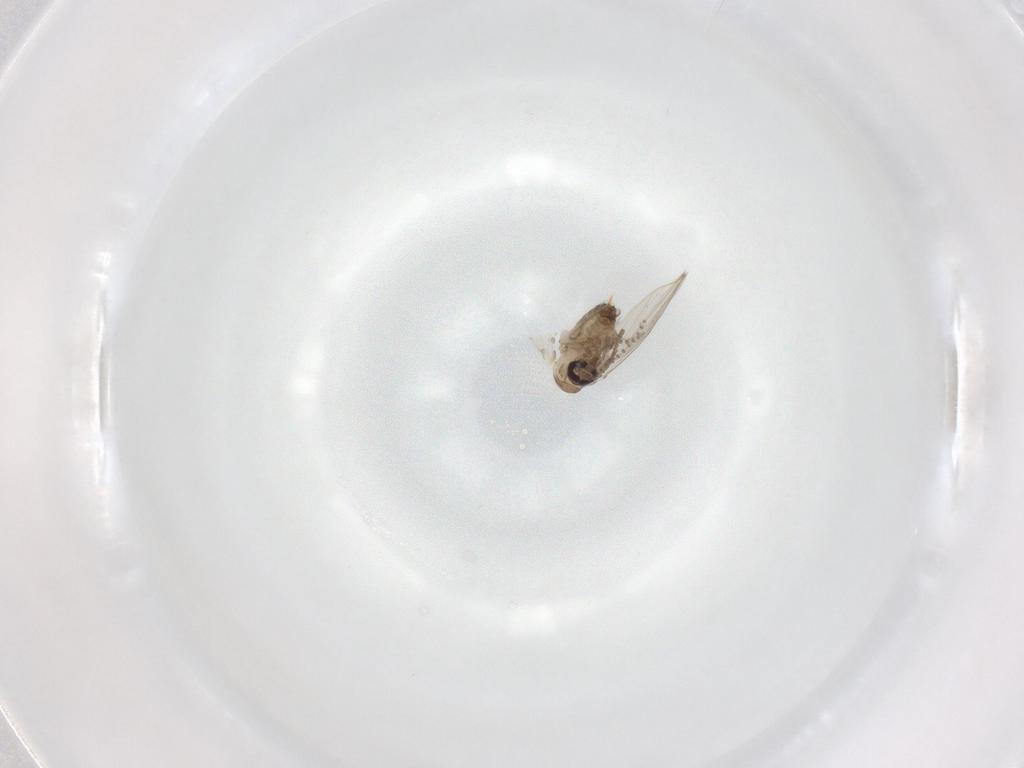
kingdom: Animalia
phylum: Arthropoda
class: Insecta
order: Diptera
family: Psychodidae
